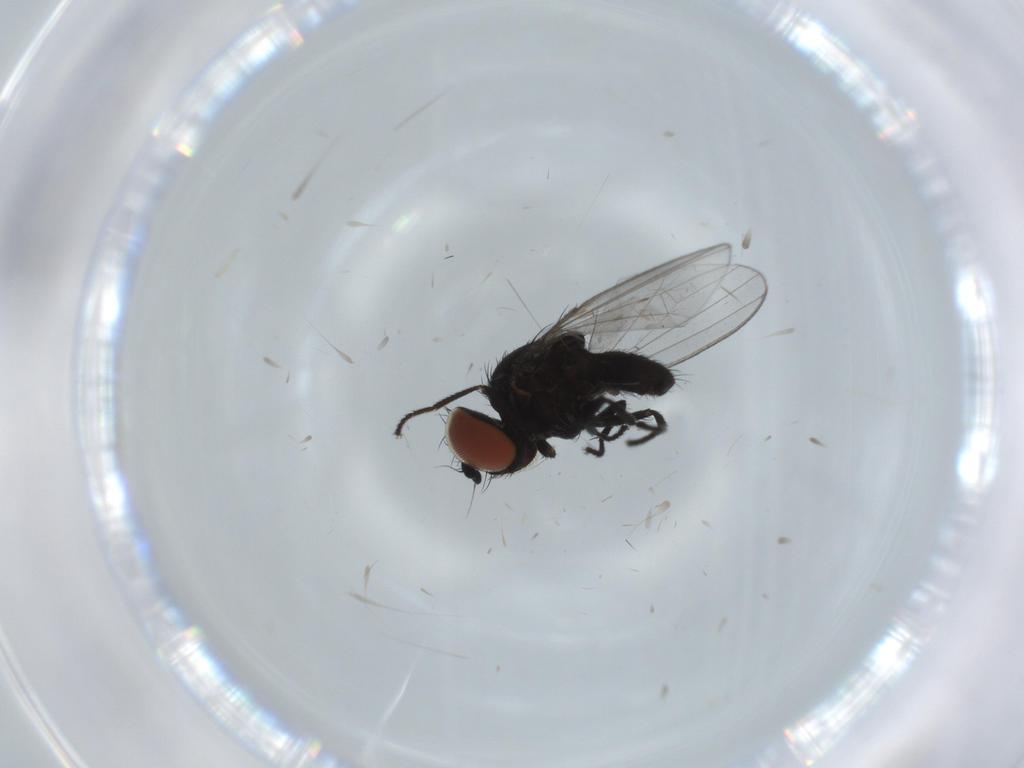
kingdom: Animalia
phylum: Arthropoda
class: Insecta
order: Diptera
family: Milichiidae
